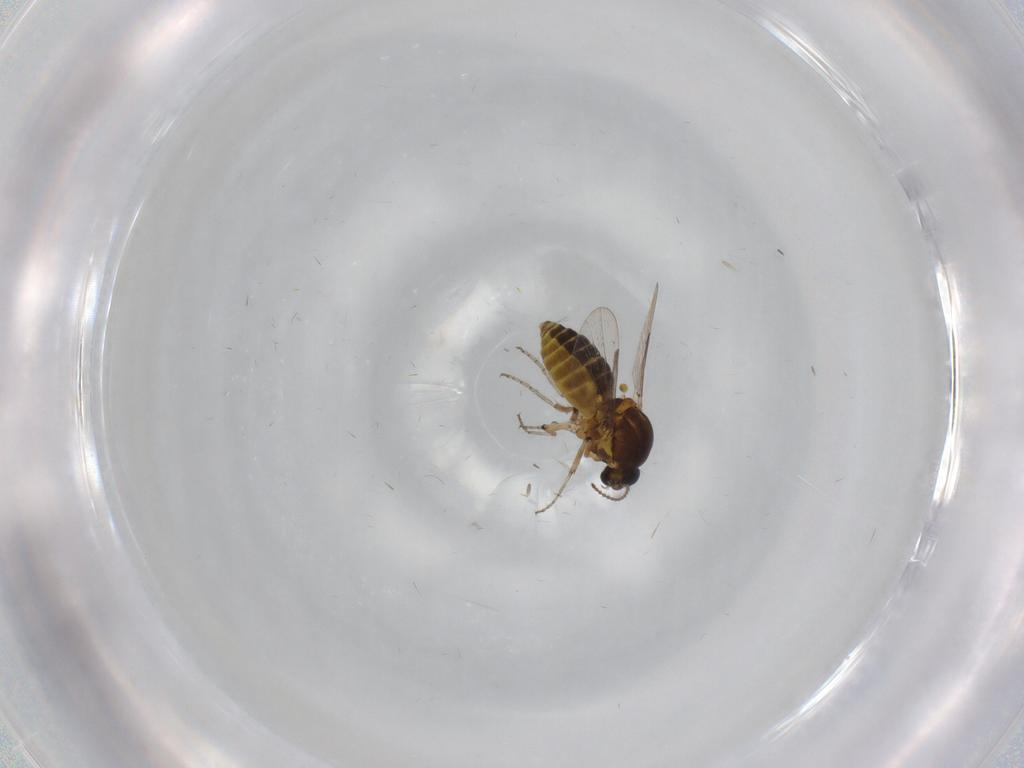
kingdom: Animalia
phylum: Arthropoda
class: Insecta
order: Diptera
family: Ceratopogonidae
